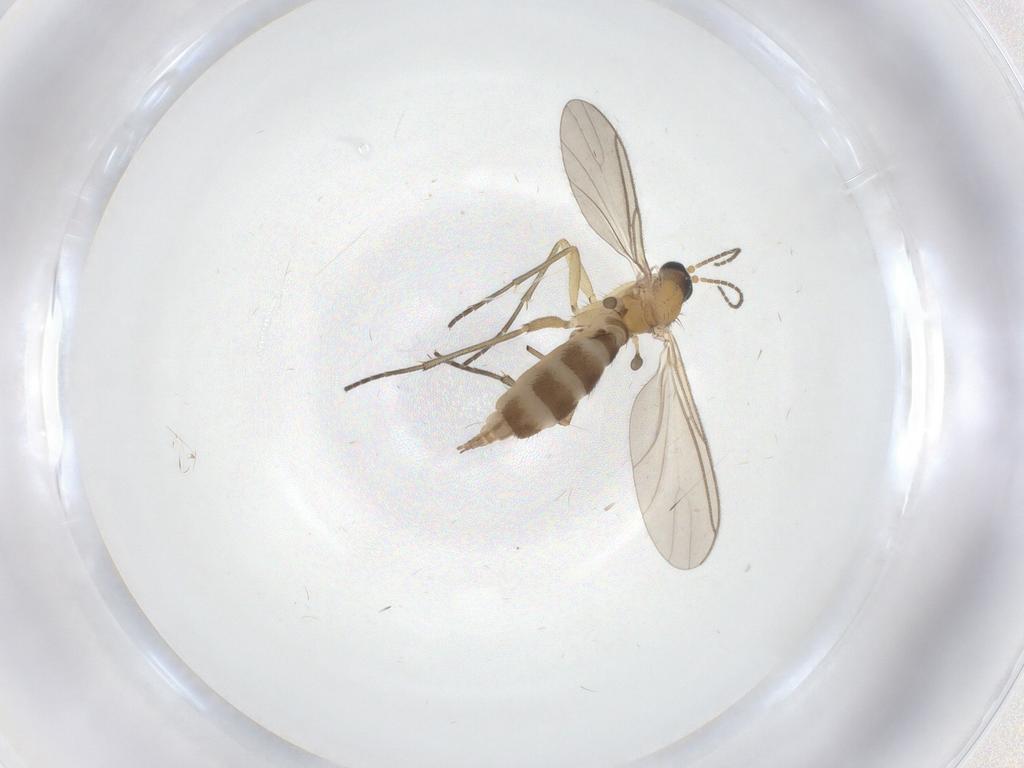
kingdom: Animalia
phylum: Arthropoda
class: Insecta
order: Diptera
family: Sciaridae
